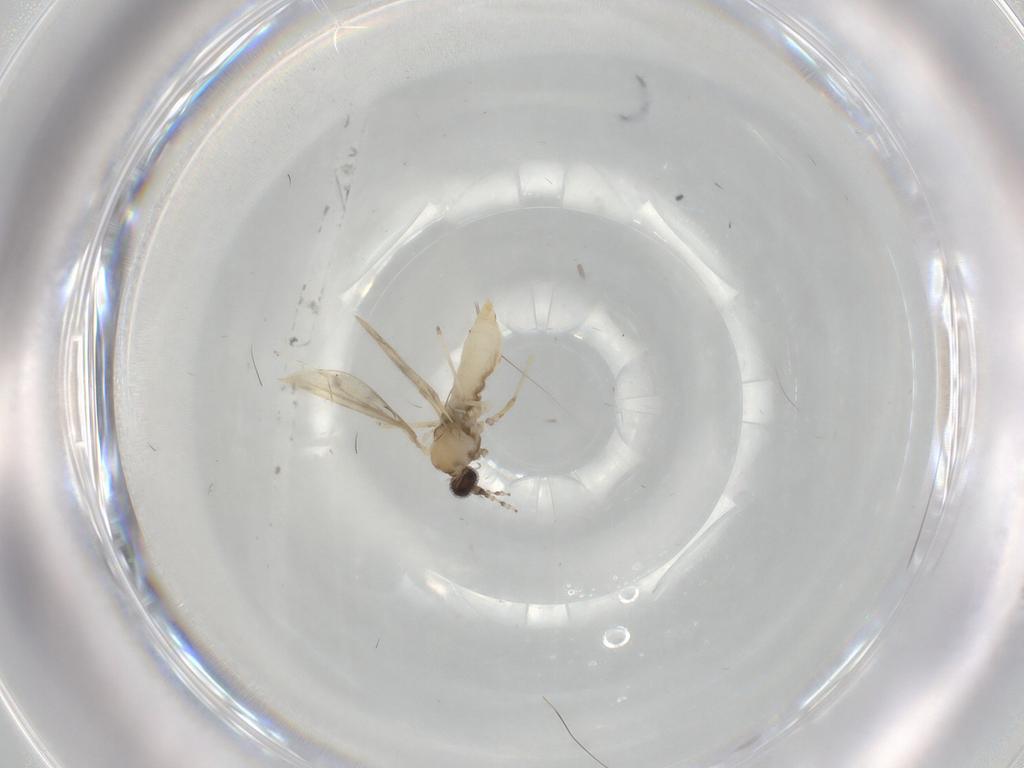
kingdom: Animalia
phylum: Arthropoda
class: Insecta
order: Diptera
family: Cecidomyiidae
